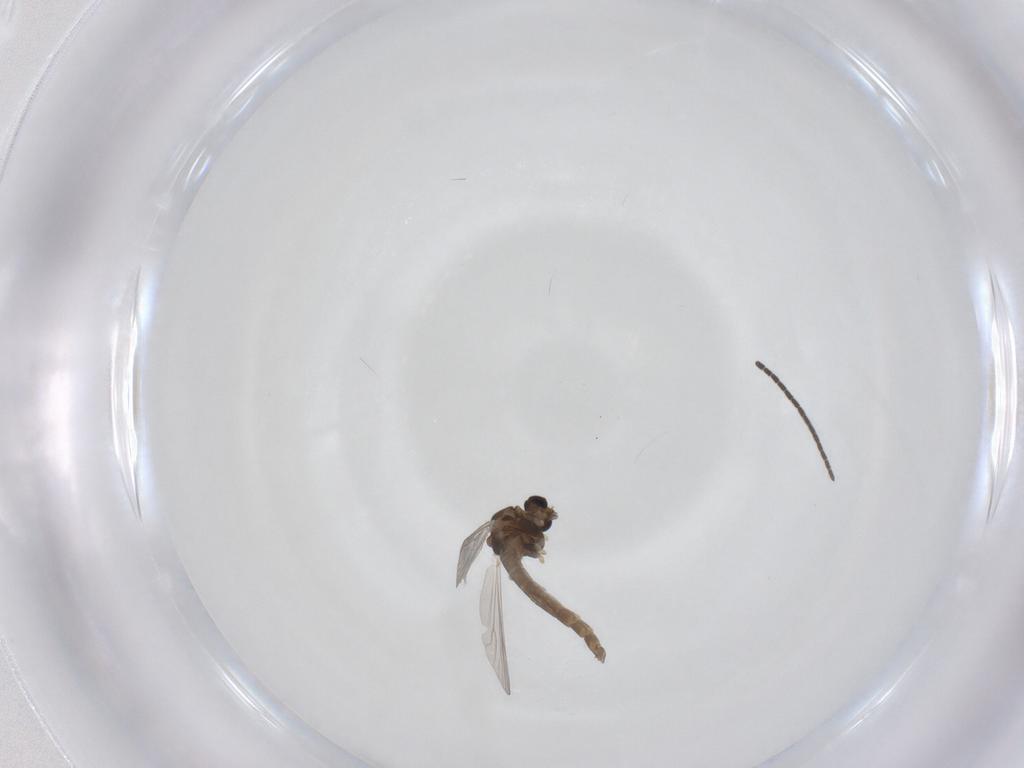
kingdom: Animalia
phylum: Arthropoda
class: Insecta
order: Diptera
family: Chironomidae
